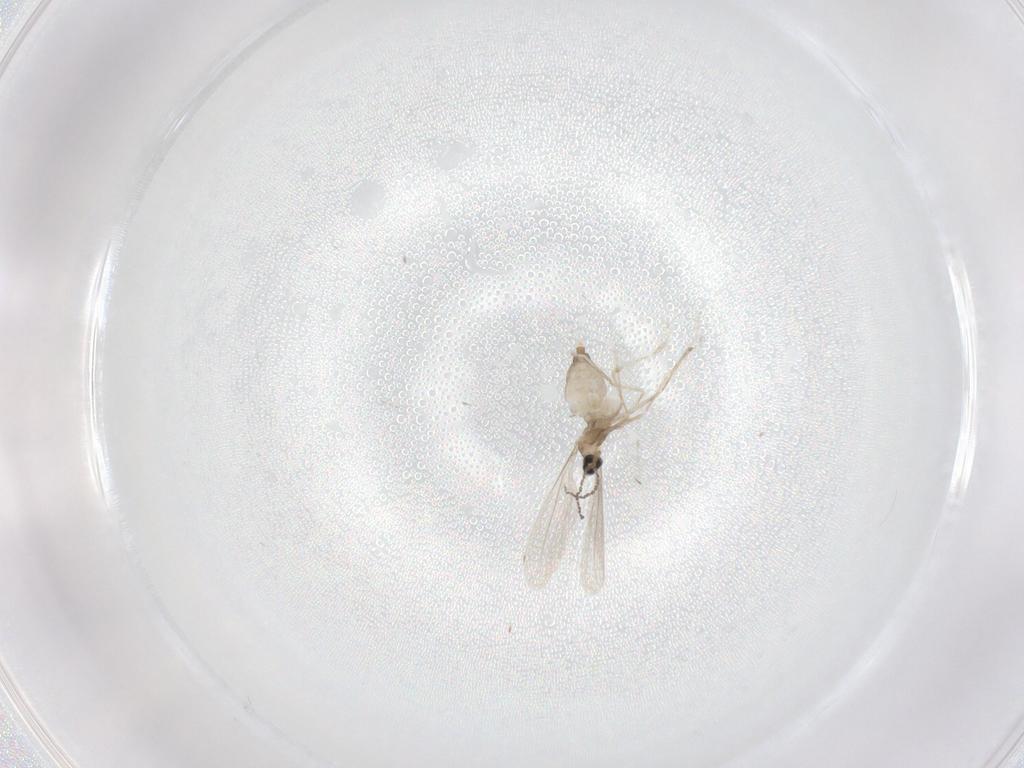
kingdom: Animalia
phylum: Arthropoda
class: Insecta
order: Diptera
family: Cecidomyiidae
